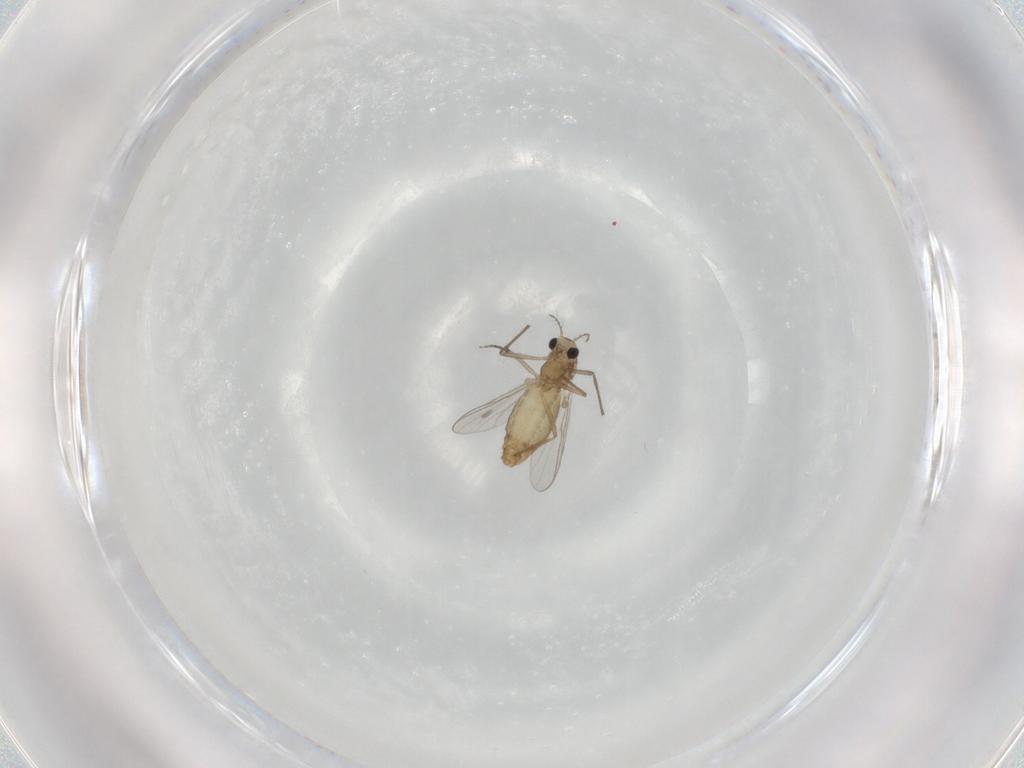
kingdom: Animalia
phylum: Arthropoda
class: Insecta
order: Diptera
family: Chironomidae
